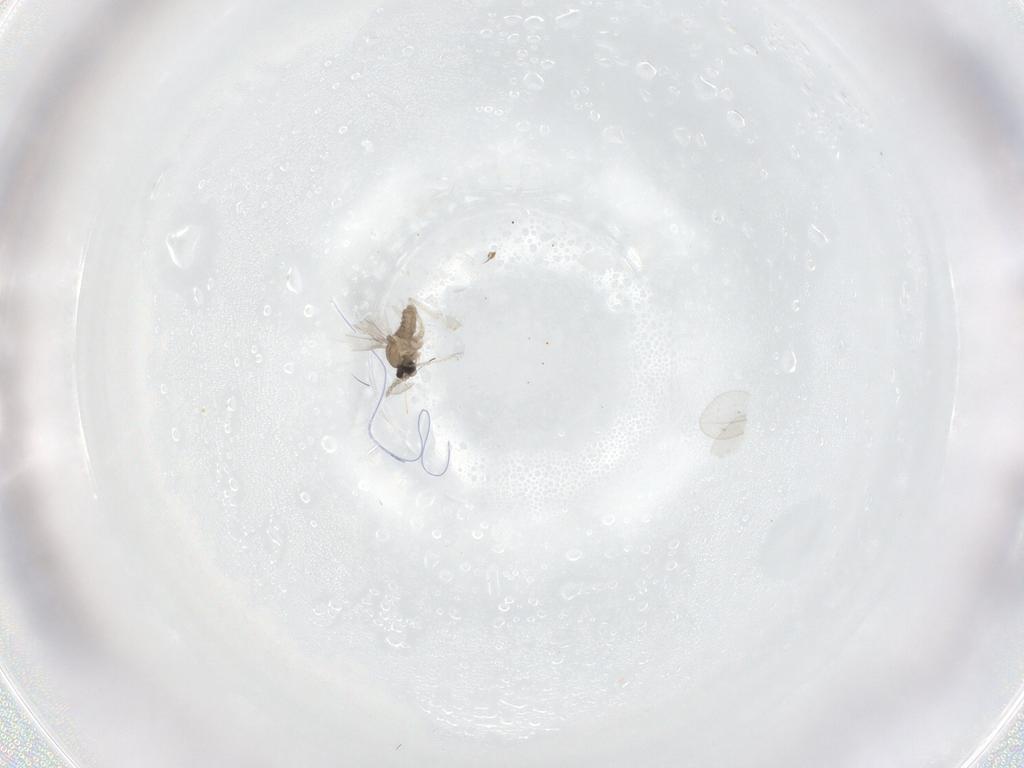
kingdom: Animalia
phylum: Arthropoda
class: Insecta
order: Diptera
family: Cecidomyiidae
